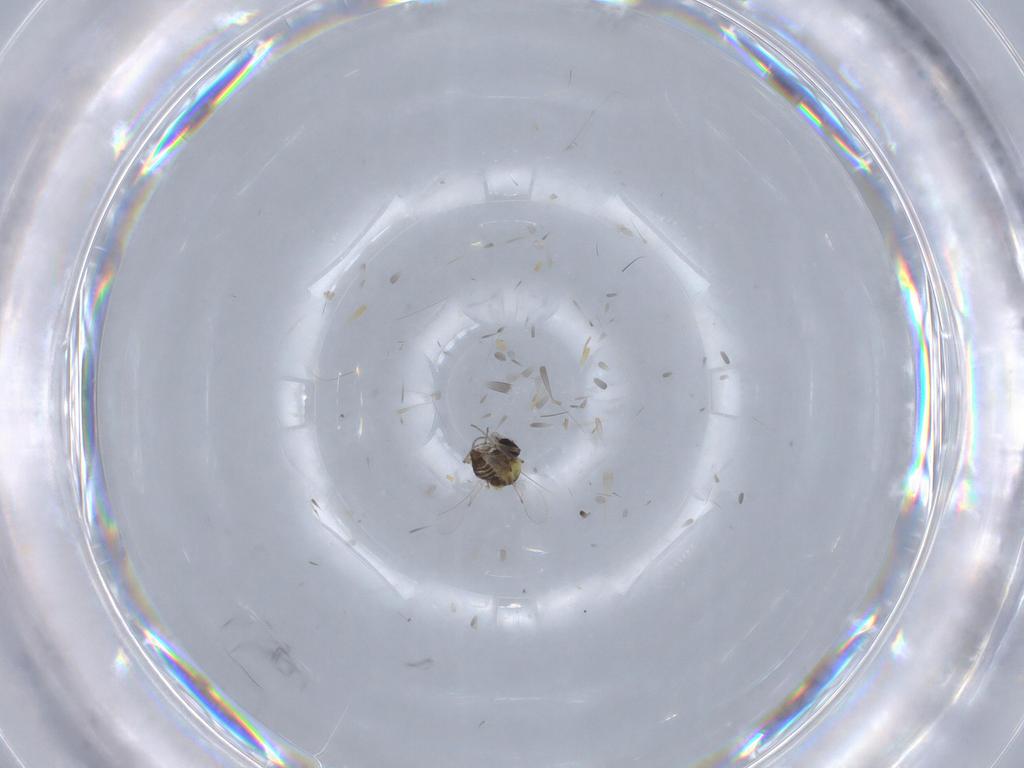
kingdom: Animalia
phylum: Arthropoda
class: Insecta
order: Diptera
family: Ceratopogonidae
